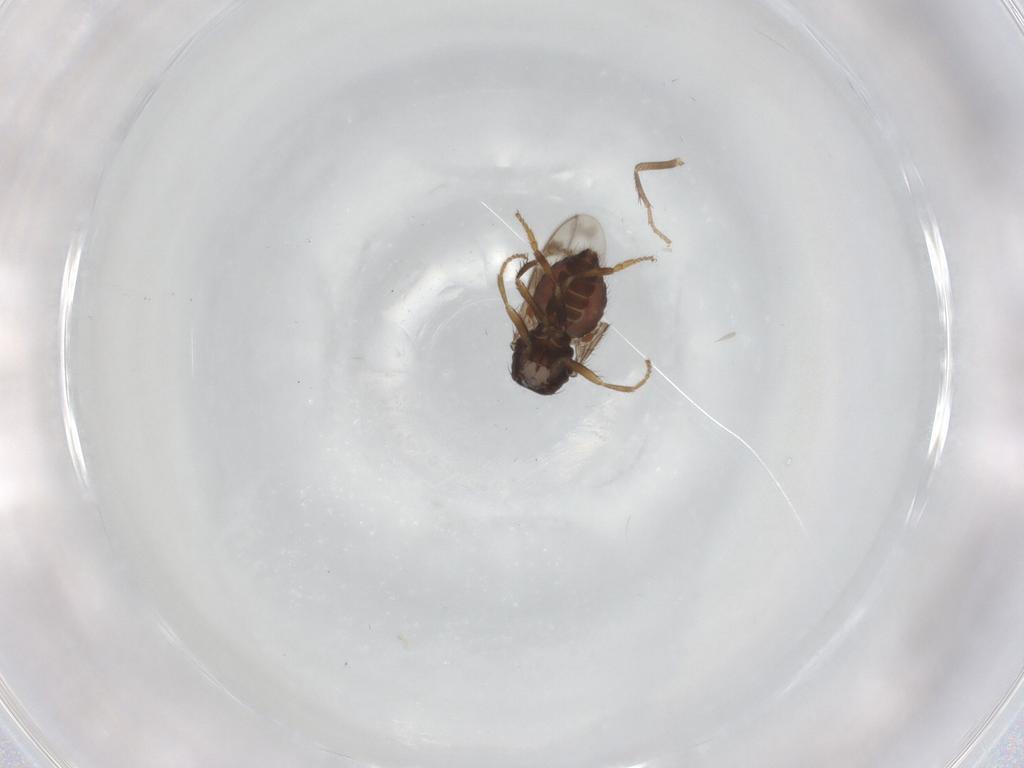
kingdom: Animalia
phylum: Arthropoda
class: Insecta
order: Diptera
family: Sphaeroceridae
